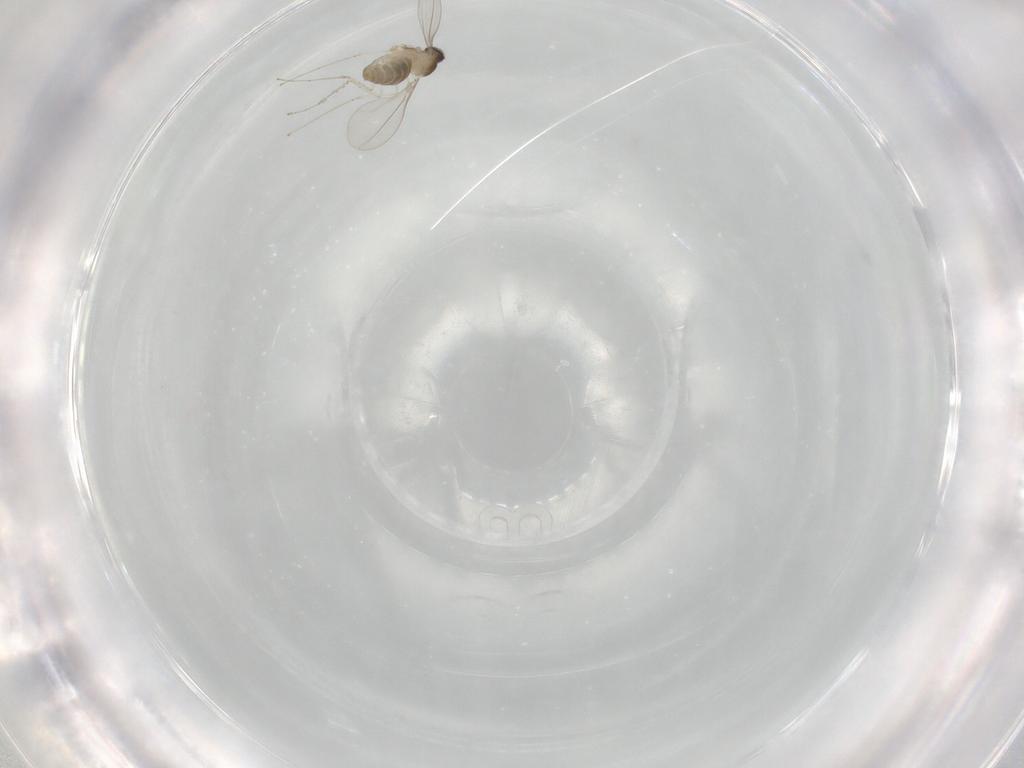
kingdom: Animalia
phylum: Arthropoda
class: Insecta
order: Diptera
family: Cecidomyiidae
